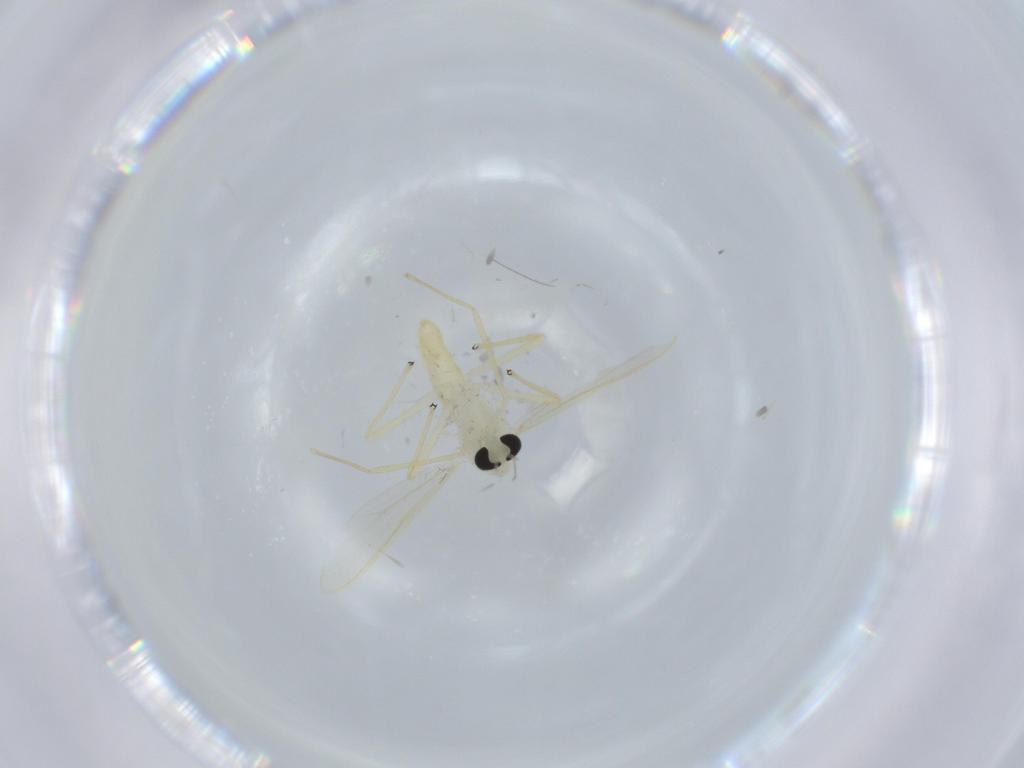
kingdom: Animalia
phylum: Arthropoda
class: Insecta
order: Diptera
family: Chironomidae
